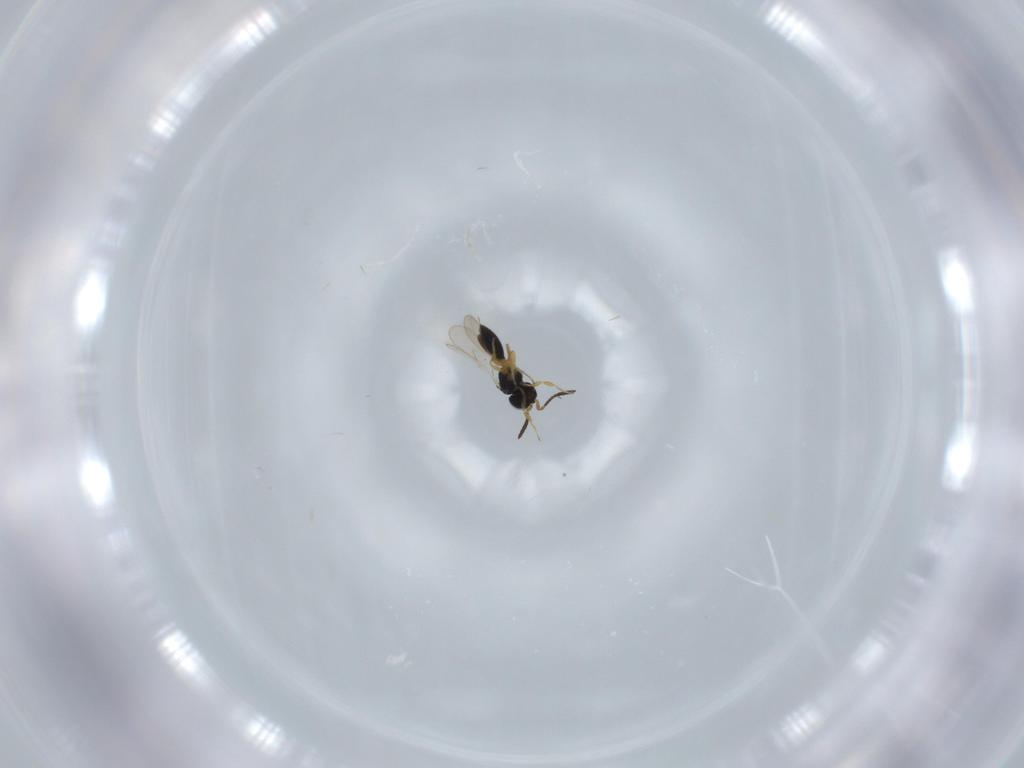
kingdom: Animalia
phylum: Arthropoda
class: Insecta
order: Hymenoptera
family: Scelionidae
